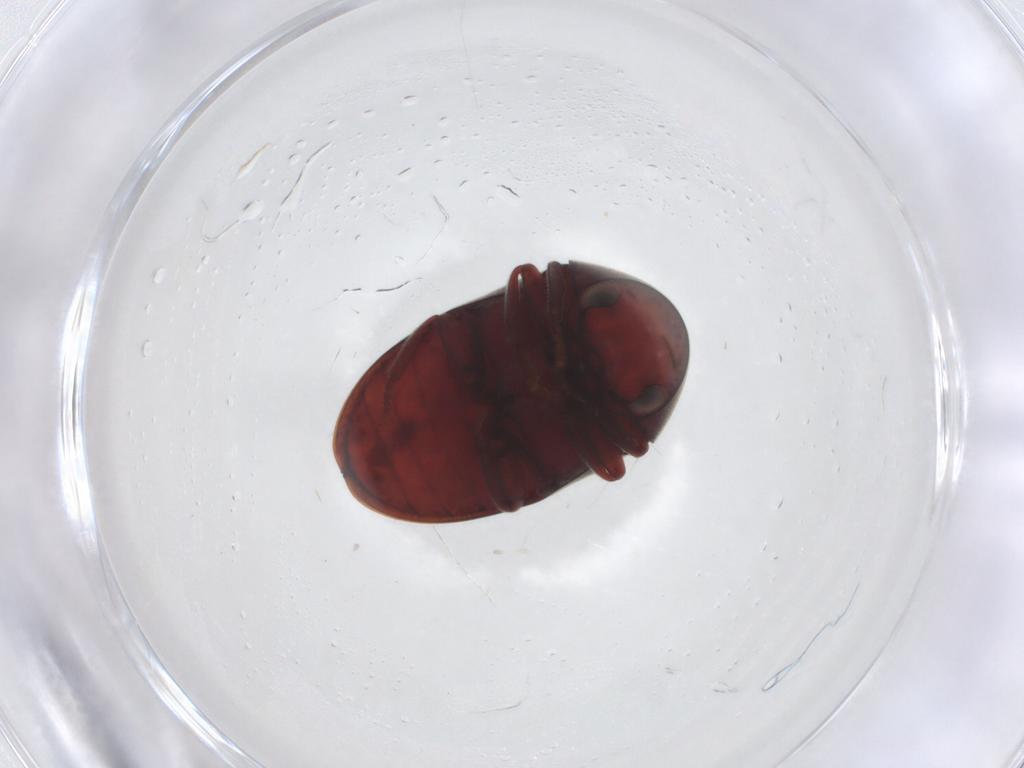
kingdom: Animalia
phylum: Arthropoda
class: Insecta
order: Coleoptera
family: Ptinidae
